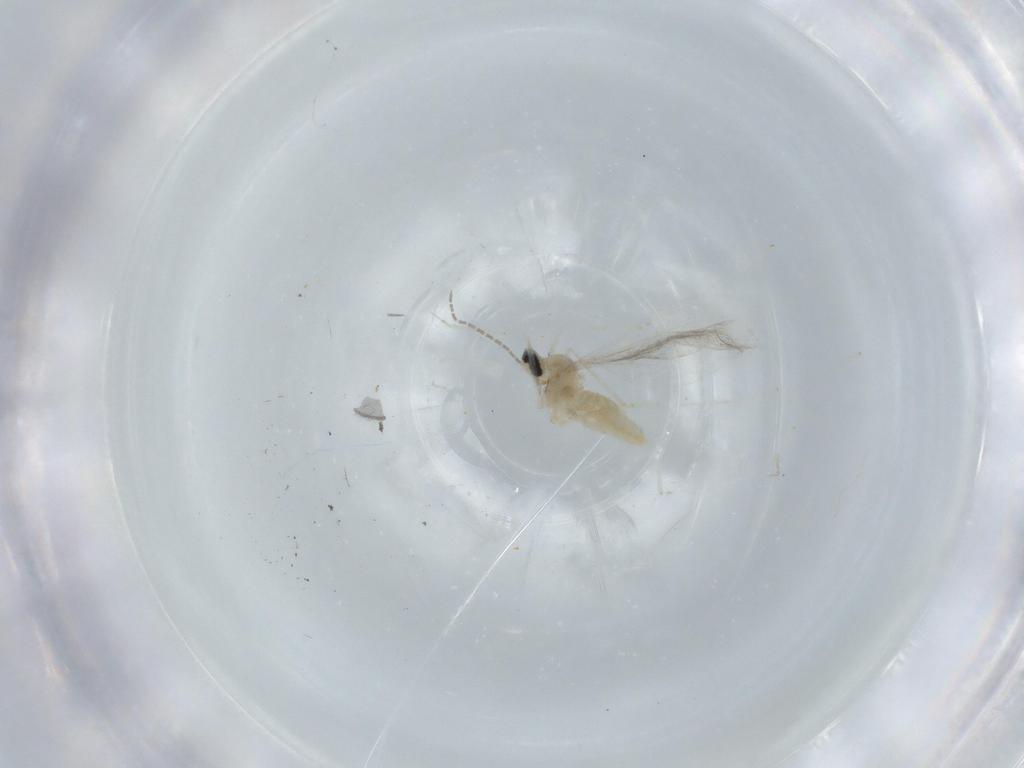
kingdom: Animalia
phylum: Arthropoda
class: Insecta
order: Diptera
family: Cecidomyiidae
